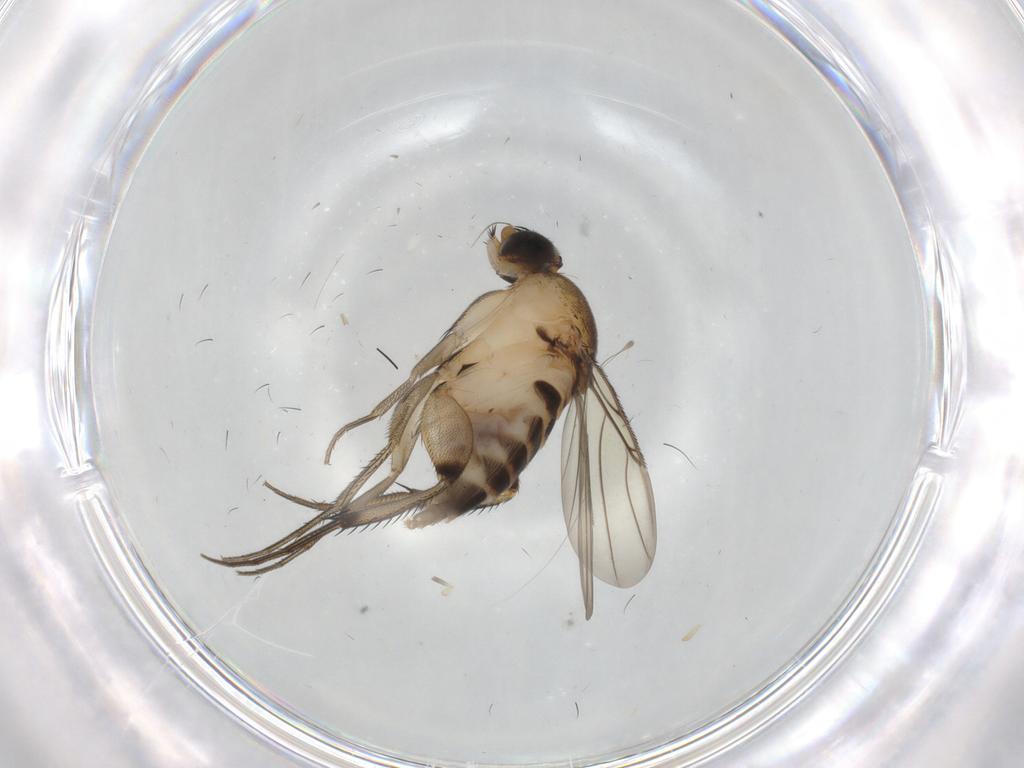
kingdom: Animalia
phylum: Arthropoda
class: Insecta
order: Diptera
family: Phoridae
